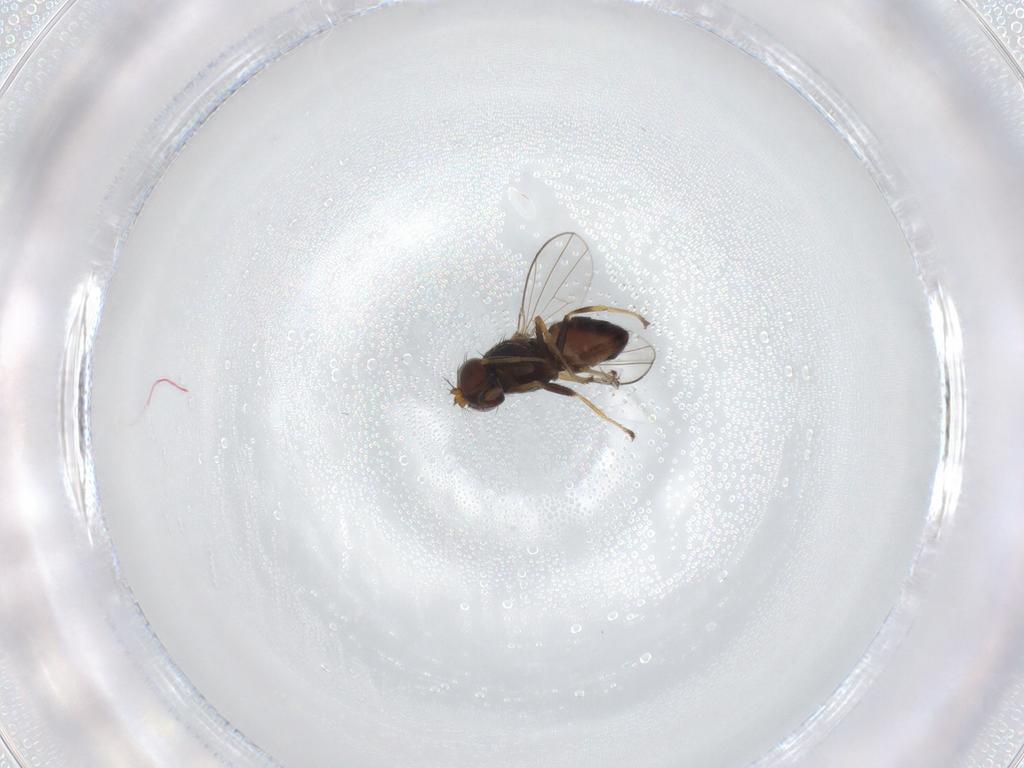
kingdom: Animalia
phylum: Arthropoda
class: Insecta
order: Diptera
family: Ephydridae
